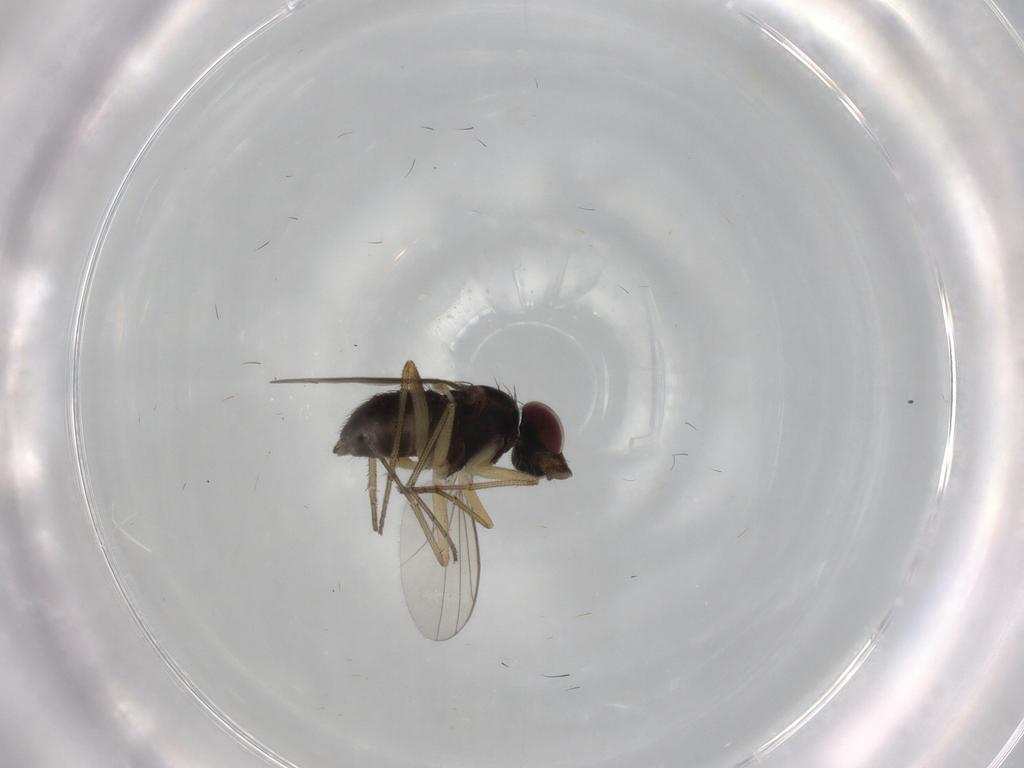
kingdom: Animalia
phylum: Arthropoda
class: Insecta
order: Diptera
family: Dolichopodidae
